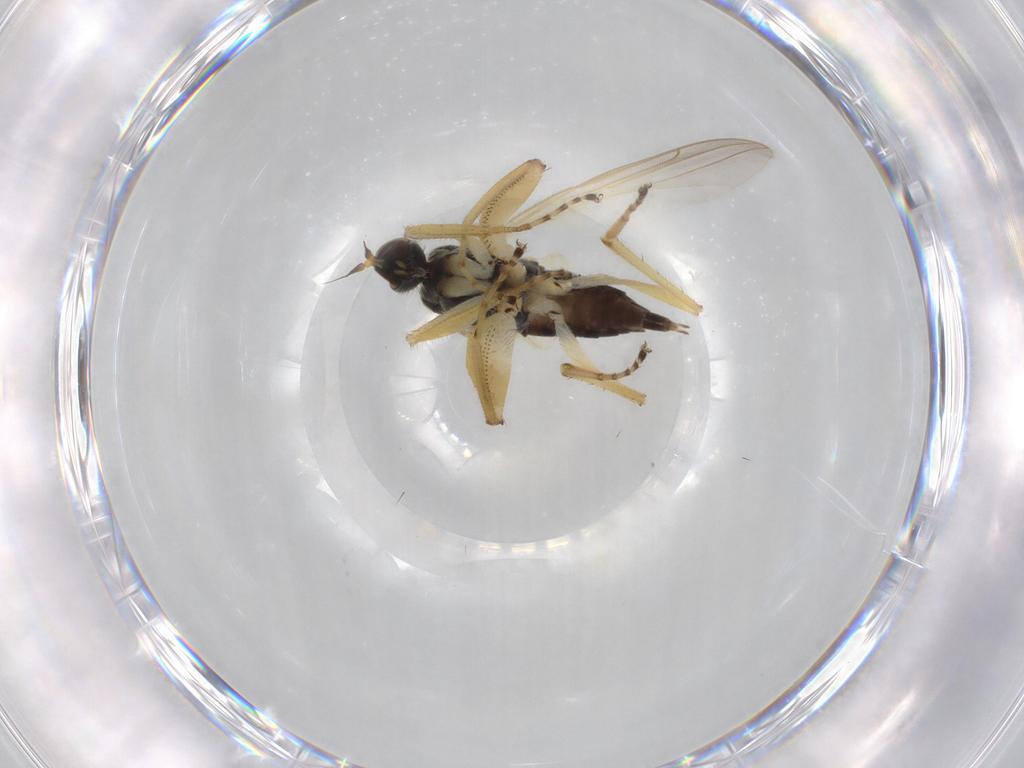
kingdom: Animalia
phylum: Arthropoda
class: Insecta
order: Diptera
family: Hybotidae
